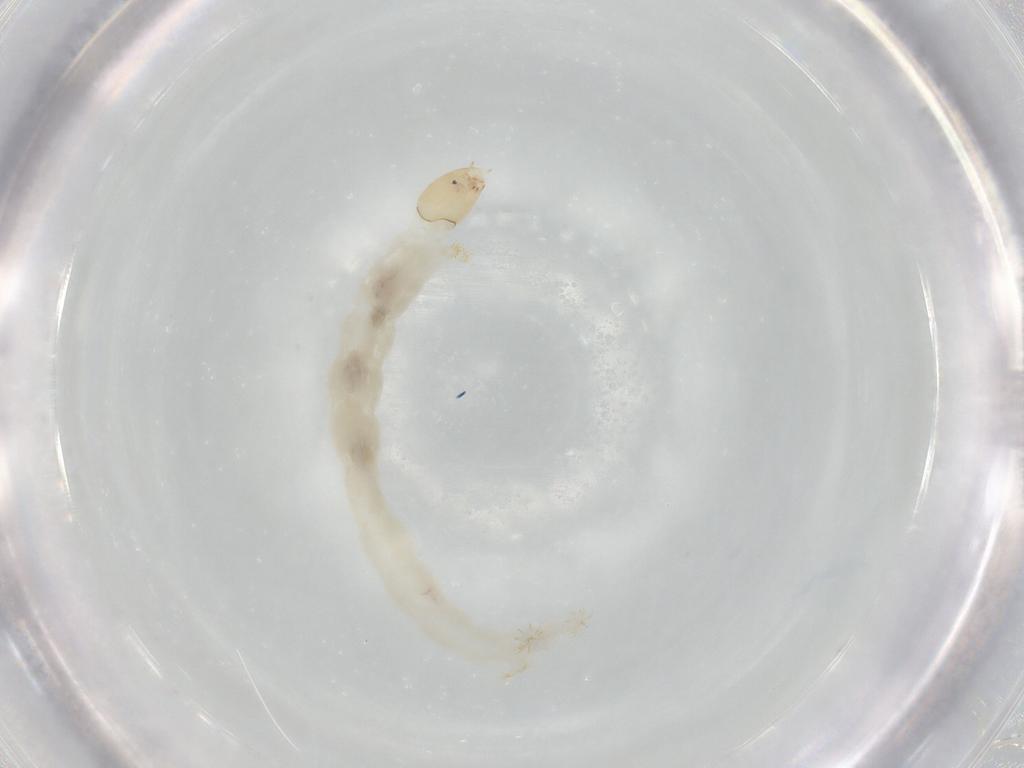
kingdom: Animalia
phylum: Arthropoda
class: Insecta
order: Diptera
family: Chironomidae
